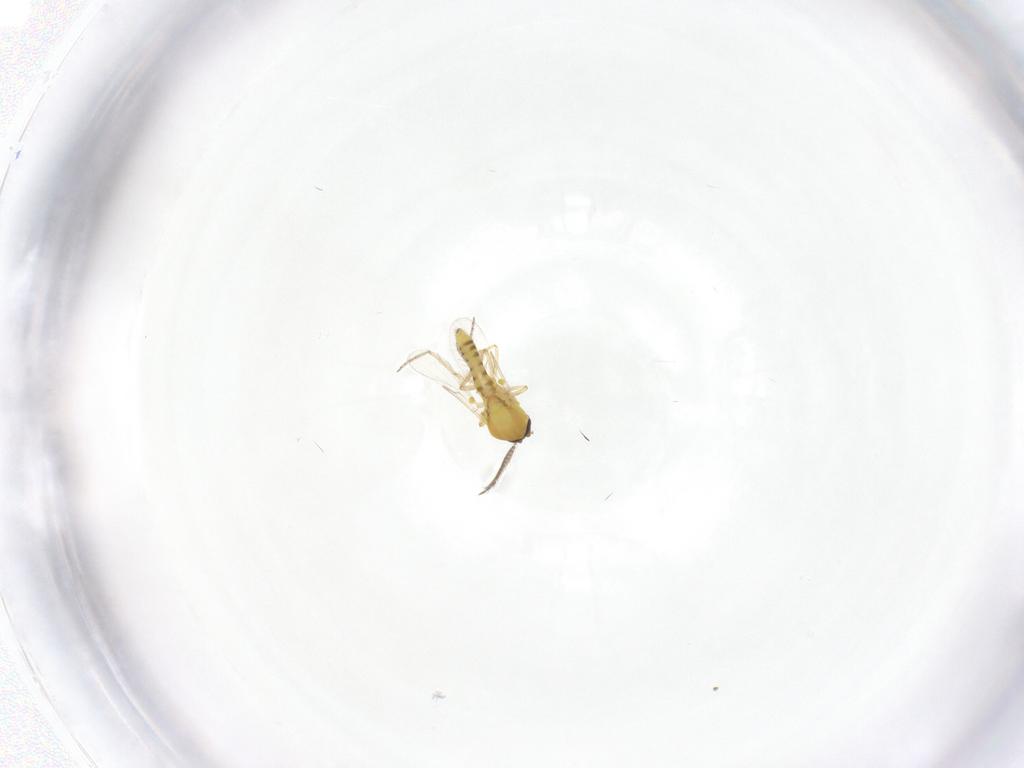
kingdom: Animalia
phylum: Arthropoda
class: Insecta
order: Diptera
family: Ceratopogonidae
